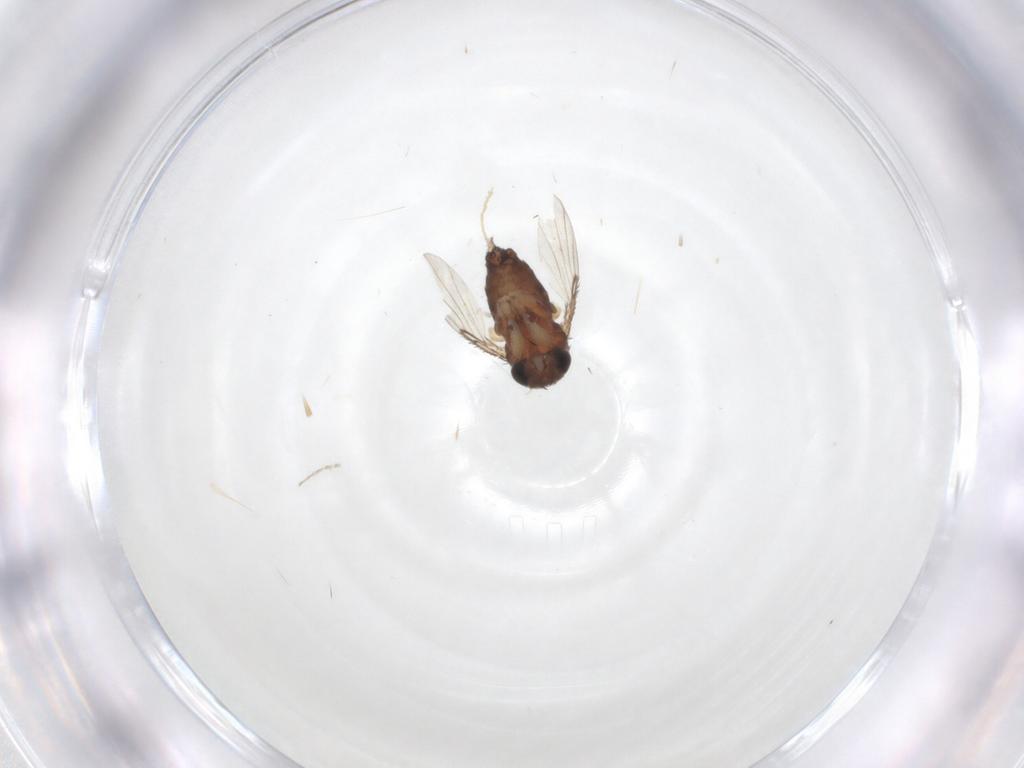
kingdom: Animalia
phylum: Arthropoda
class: Insecta
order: Diptera
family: Phoridae
